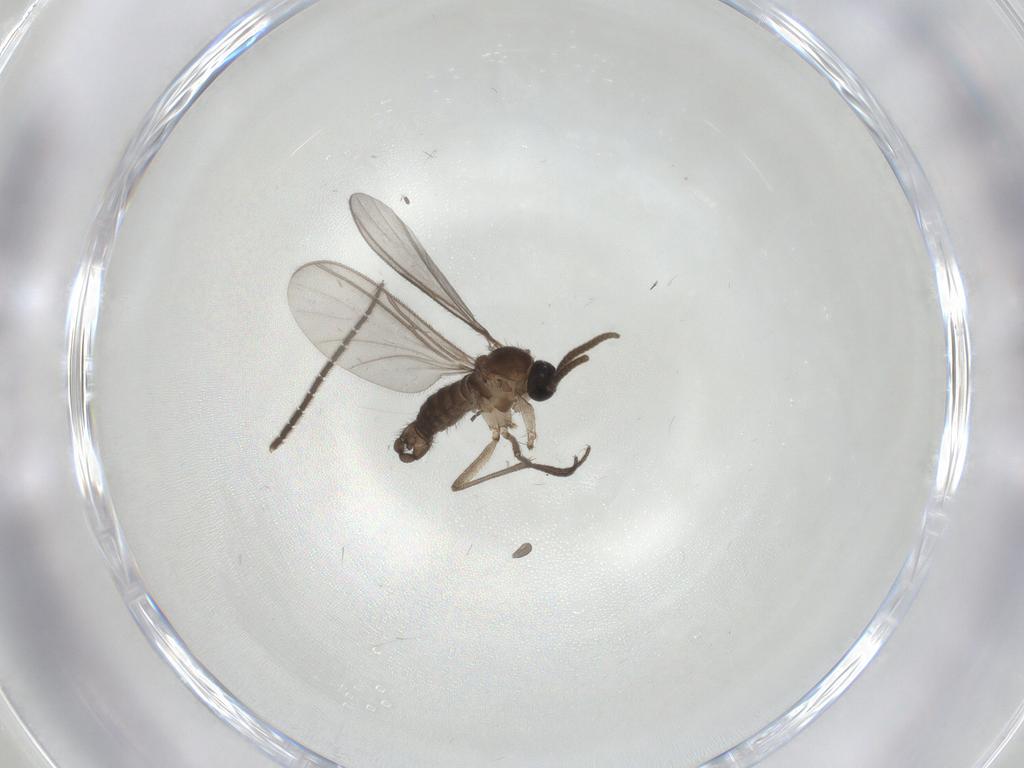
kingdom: Animalia
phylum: Arthropoda
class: Insecta
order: Diptera
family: Sciaridae
